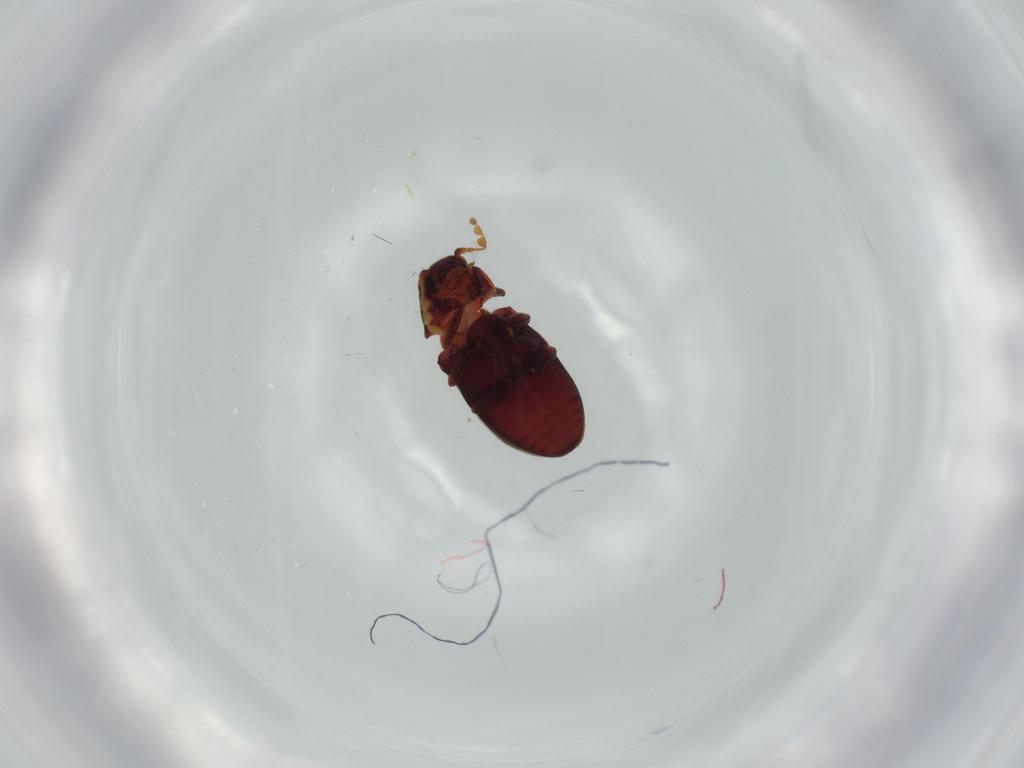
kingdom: Animalia
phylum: Arthropoda
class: Insecta
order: Coleoptera
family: Ptinidae
